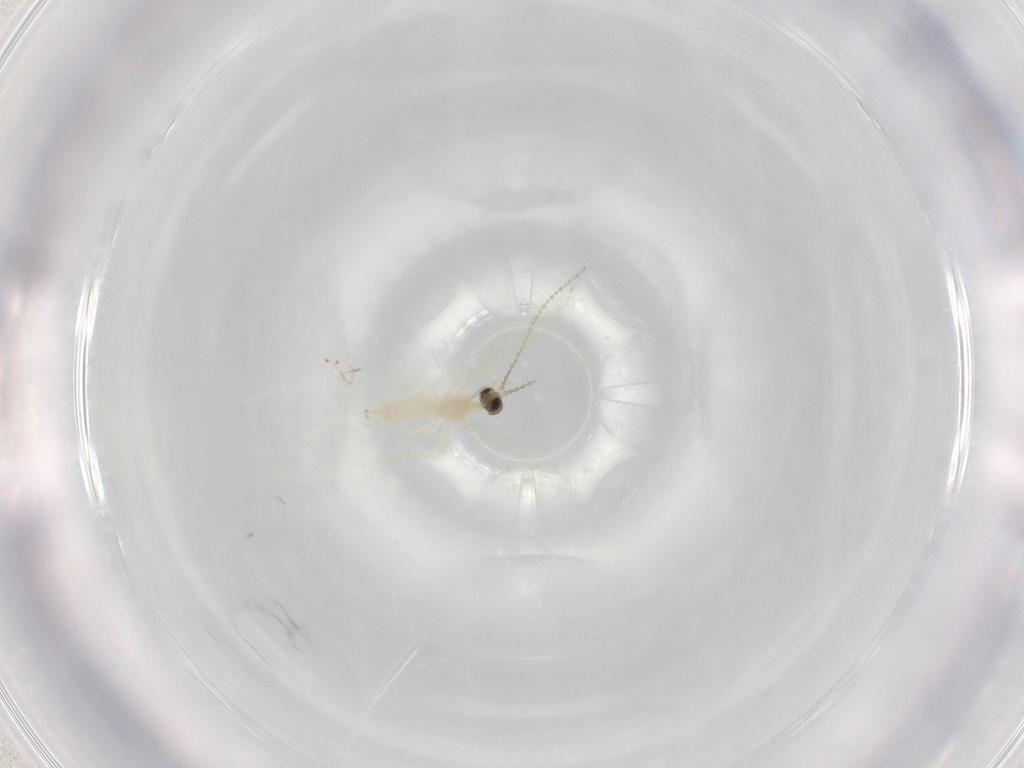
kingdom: Animalia
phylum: Arthropoda
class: Insecta
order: Diptera
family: Cecidomyiidae
